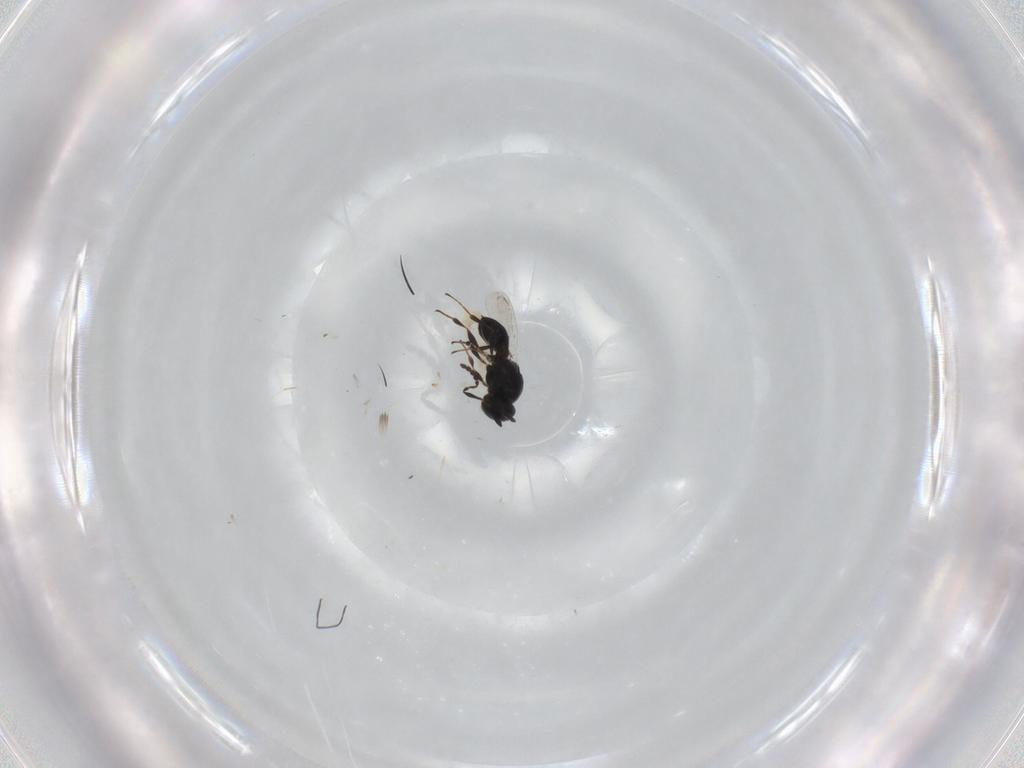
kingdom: Animalia
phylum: Arthropoda
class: Insecta
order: Hymenoptera
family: Platygastridae
